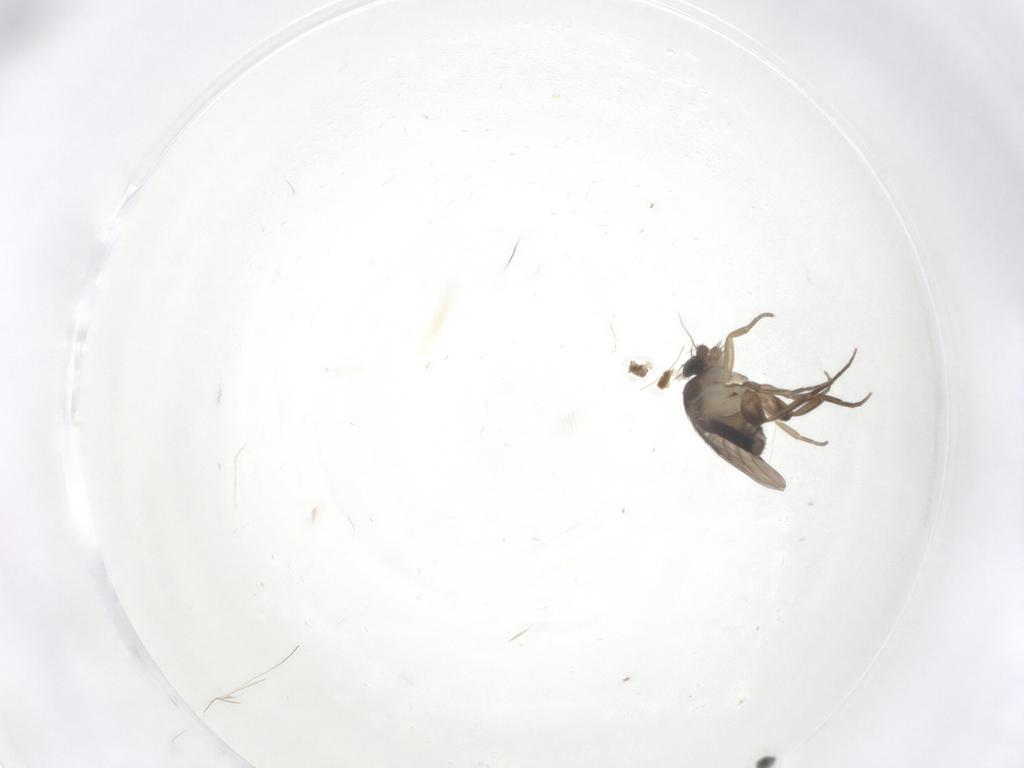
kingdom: Animalia
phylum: Arthropoda
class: Insecta
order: Diptera
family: Phoridae
